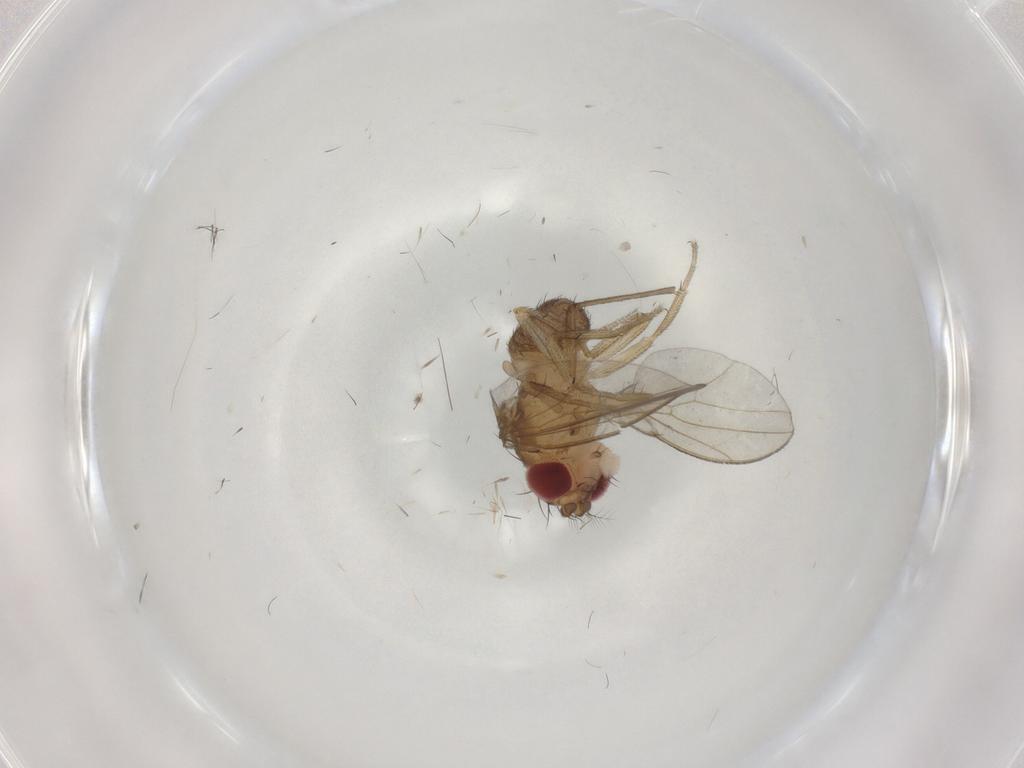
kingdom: Animalia
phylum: Arthropoda
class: Insecta
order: Diptera
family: Drosophilidae
